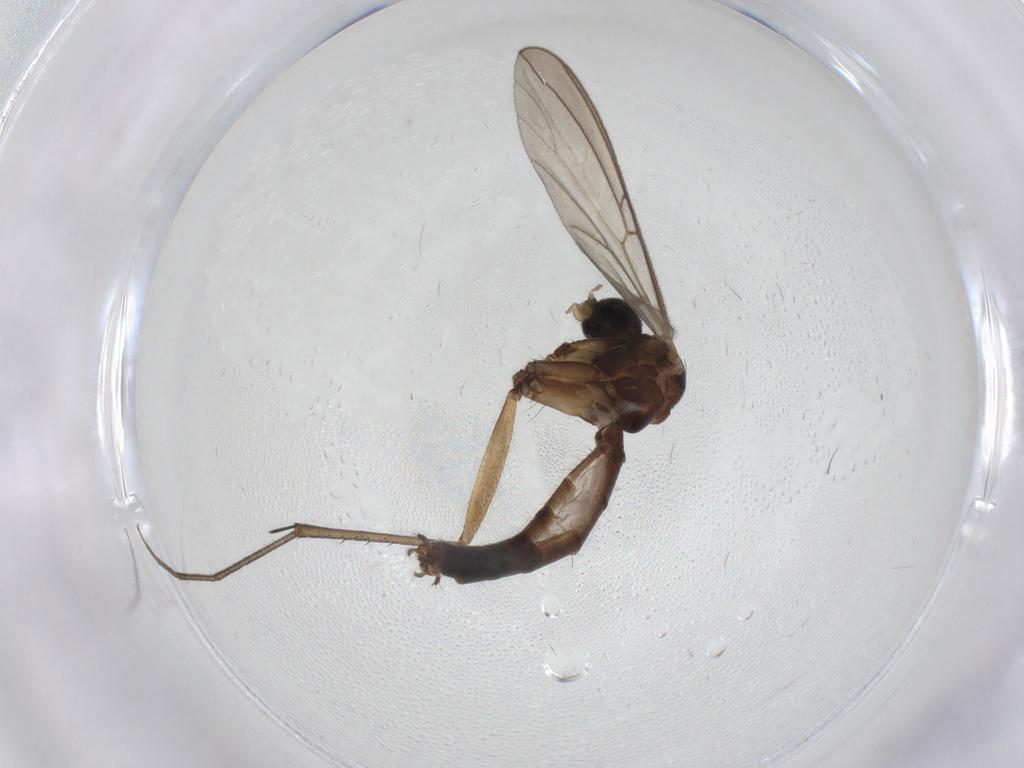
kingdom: Animalia
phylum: Arthropoda
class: Insecta
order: Diptera
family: Mycetophilidae
